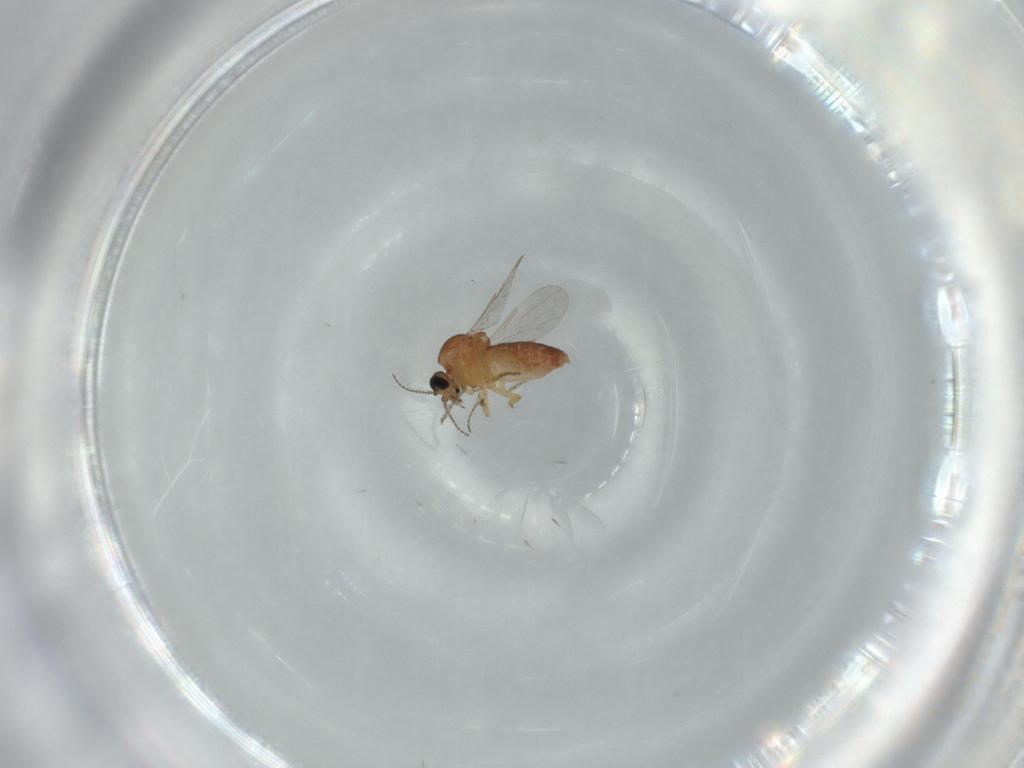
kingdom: Animalia
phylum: Arthropoda
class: Insecta
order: Diptera
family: Ceratopogonidae
